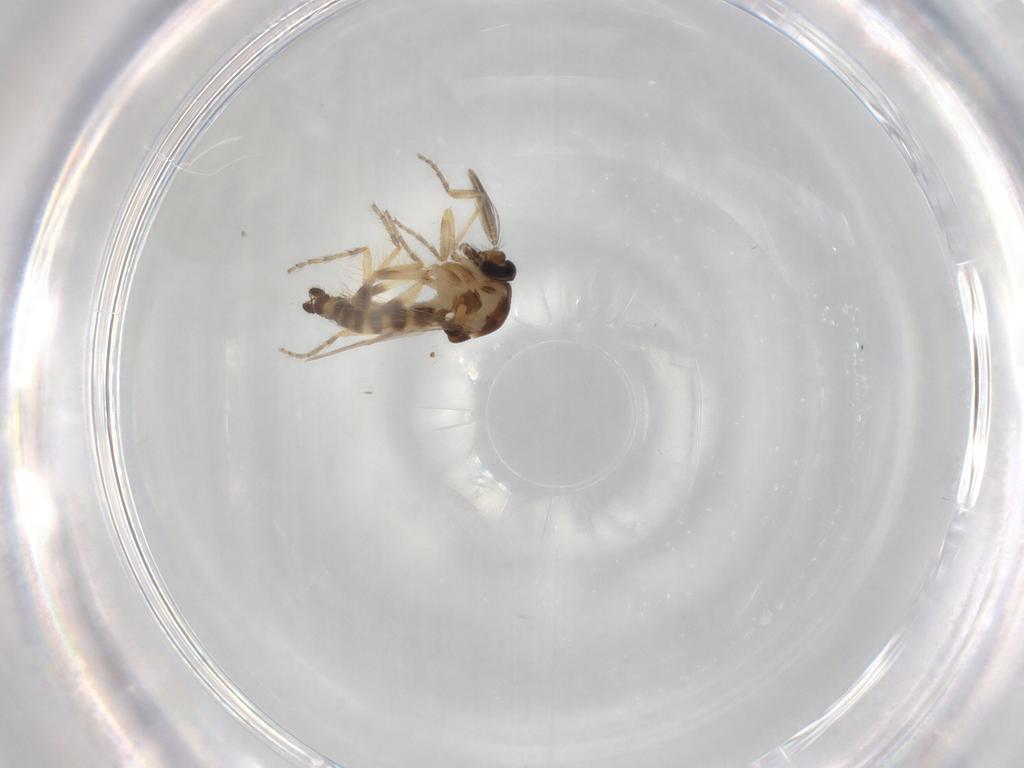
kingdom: Animalia
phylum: Arthropoda
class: Insecta
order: Diptera
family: Ceratopogonidae
